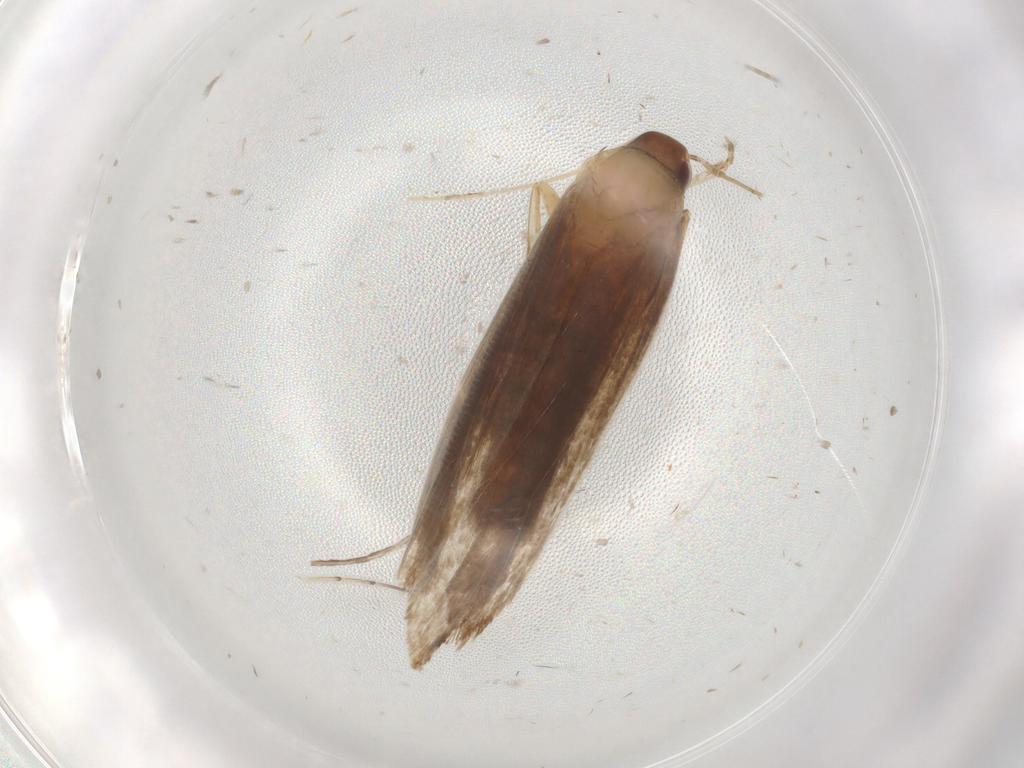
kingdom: Animalia
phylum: Arthropoda
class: Insecta
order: Lepidoptera
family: Gelechiidae
